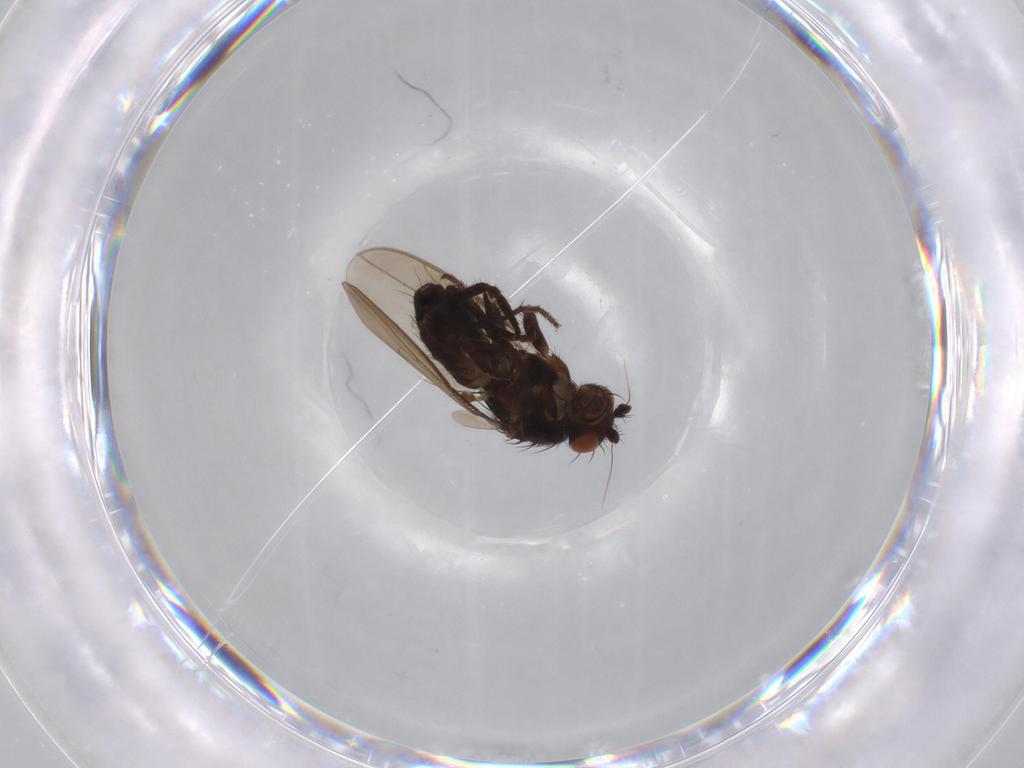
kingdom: Animalia
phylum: Arthropoda
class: Insecta
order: Diptera
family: Sphaeroceridae
